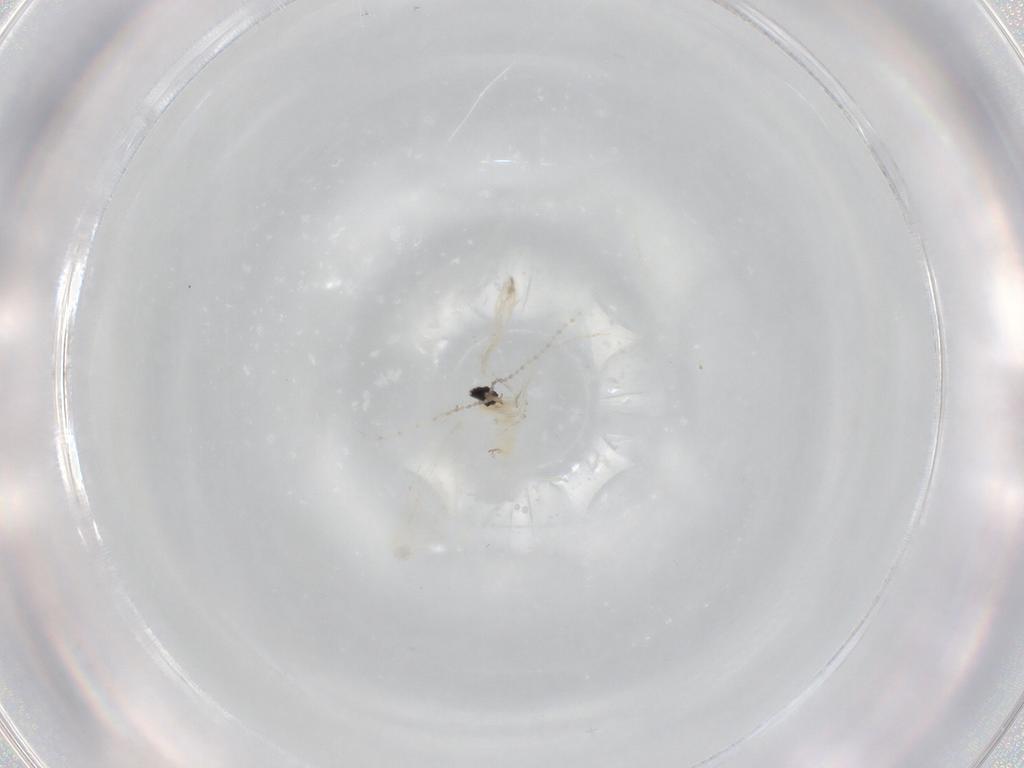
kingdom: Animalia
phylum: Arthropoda
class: Insecta
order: Diptera
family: Cecidomyiidae
